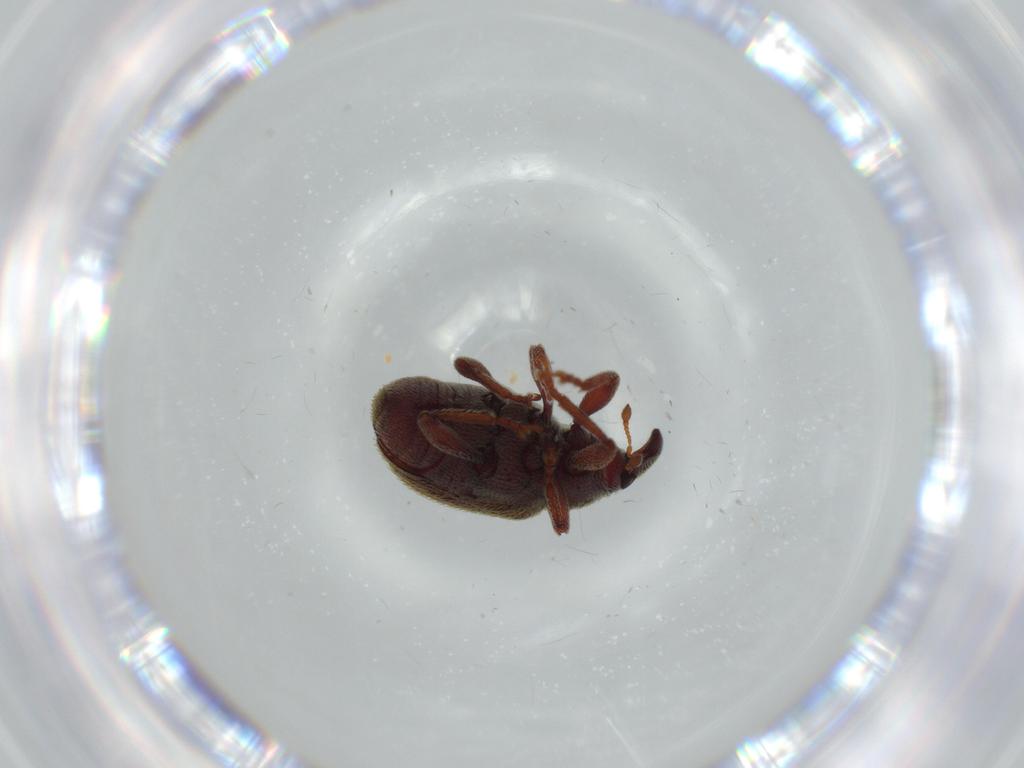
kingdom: Animalia
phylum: Arthropoda
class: Insecta
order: Coleoptera
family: Curculionidae
